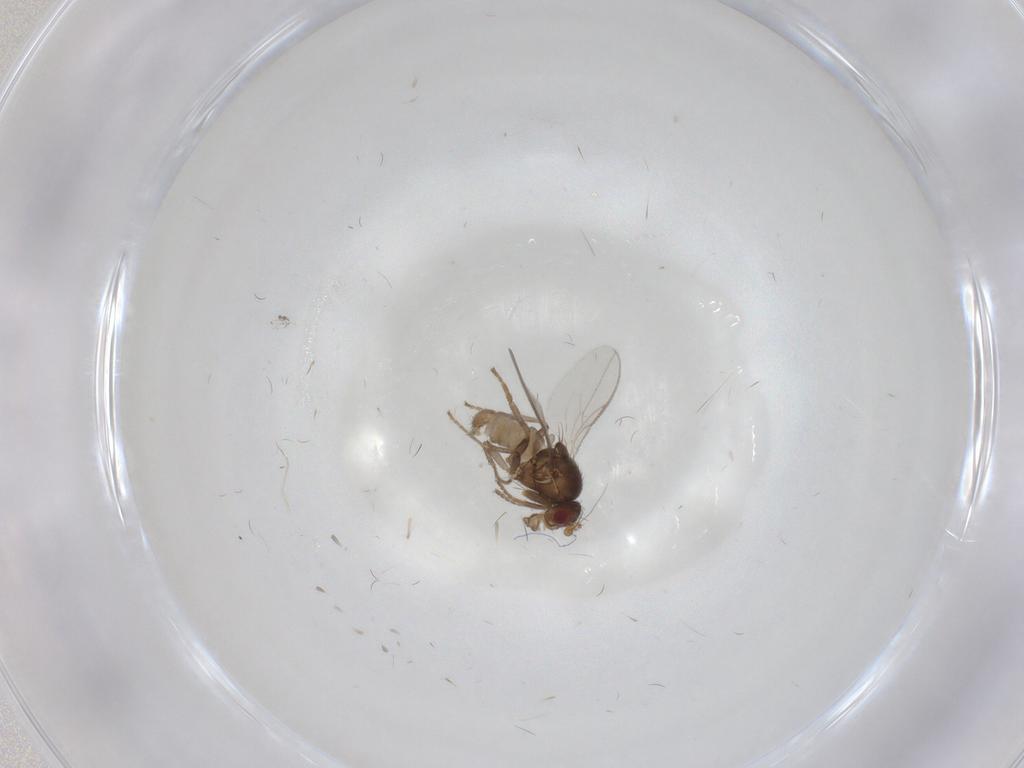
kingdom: Animalia
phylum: Arthropoda
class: Insecta
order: Diptera
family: Sphaeroceridae
